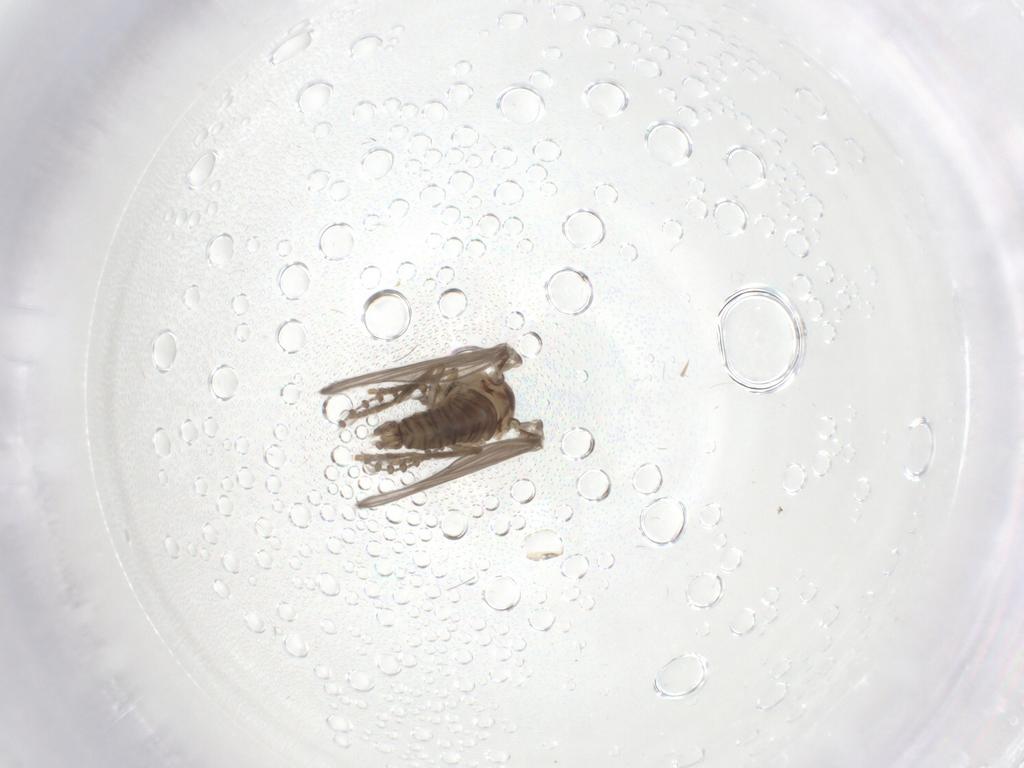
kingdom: Animalia
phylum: Arthropoda
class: Insecta
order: Diptera
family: Psychodidae
